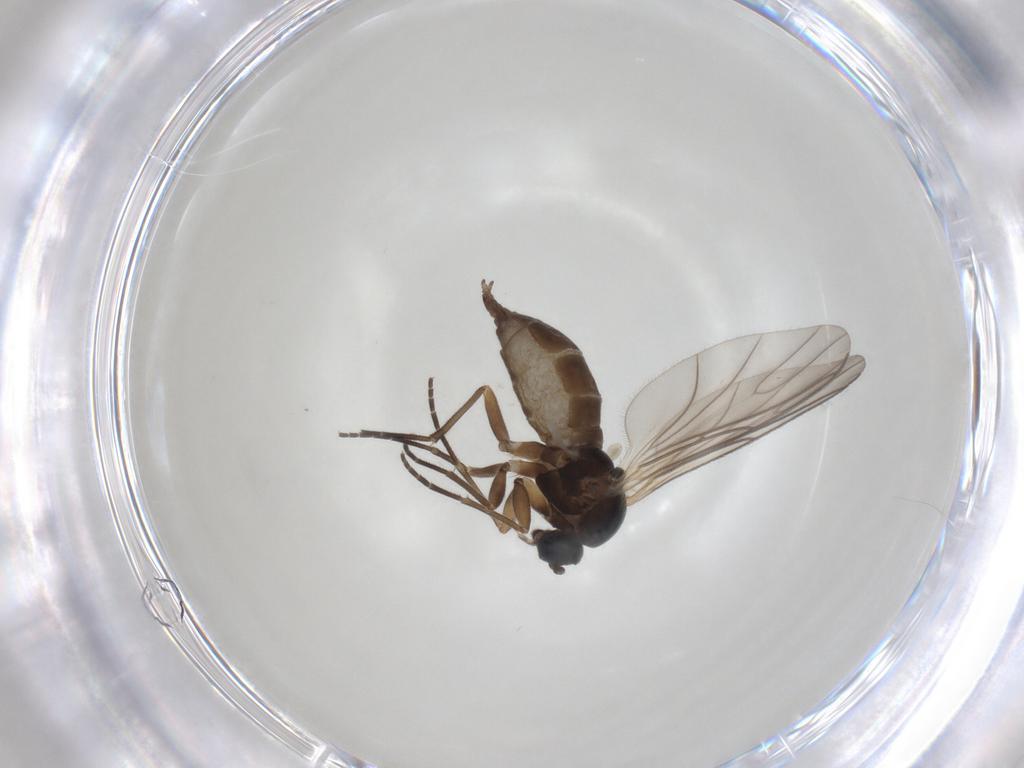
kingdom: Animalia
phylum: Arthropoda
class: Insecta
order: Diptera
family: Sciaridae
